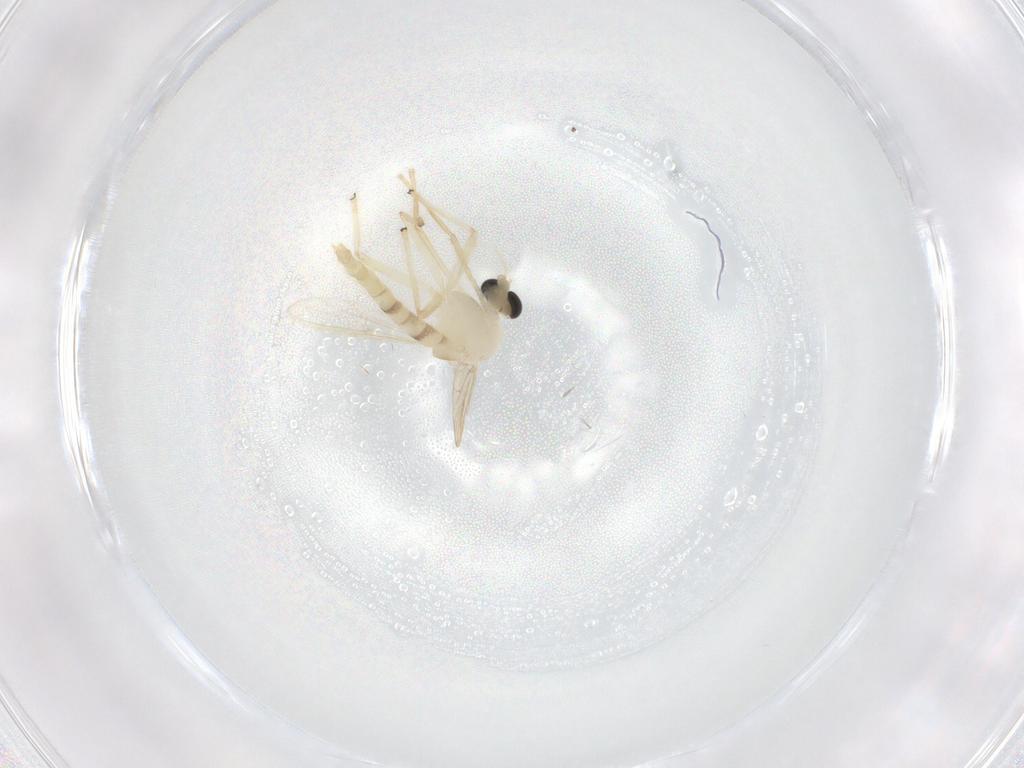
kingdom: Animalia
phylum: Arthropoda
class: Insecta
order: Diptera
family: Chironomidae
